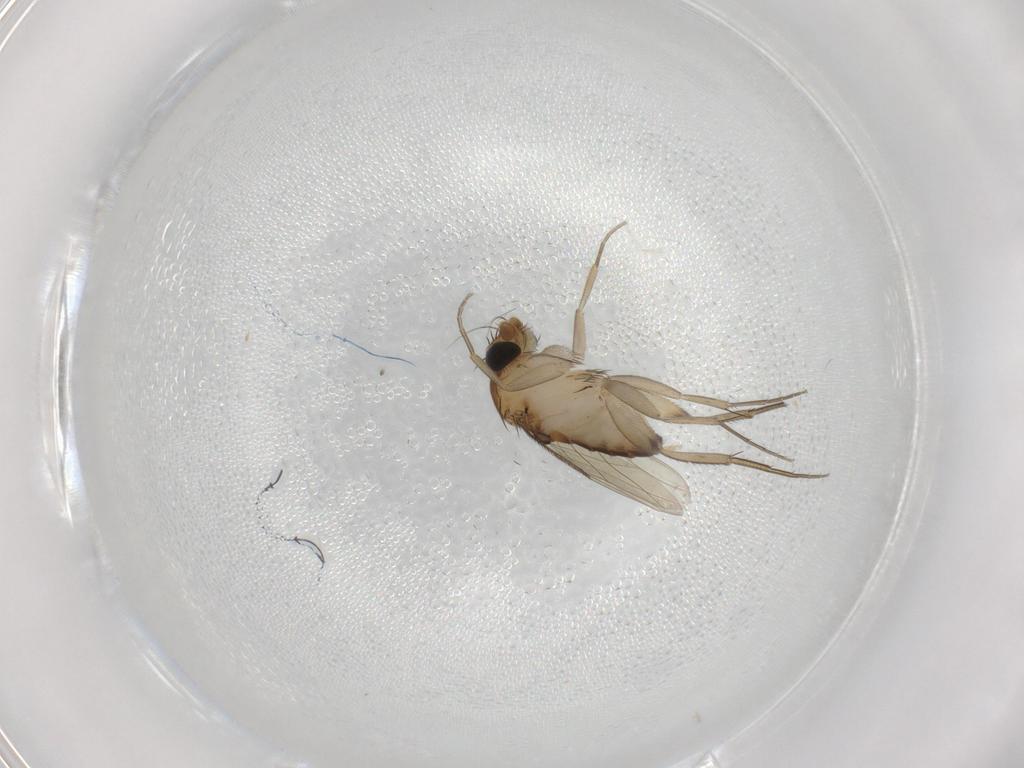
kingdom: Animalia
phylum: Arthropoda
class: Insecta
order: Diptera
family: Phoridae
